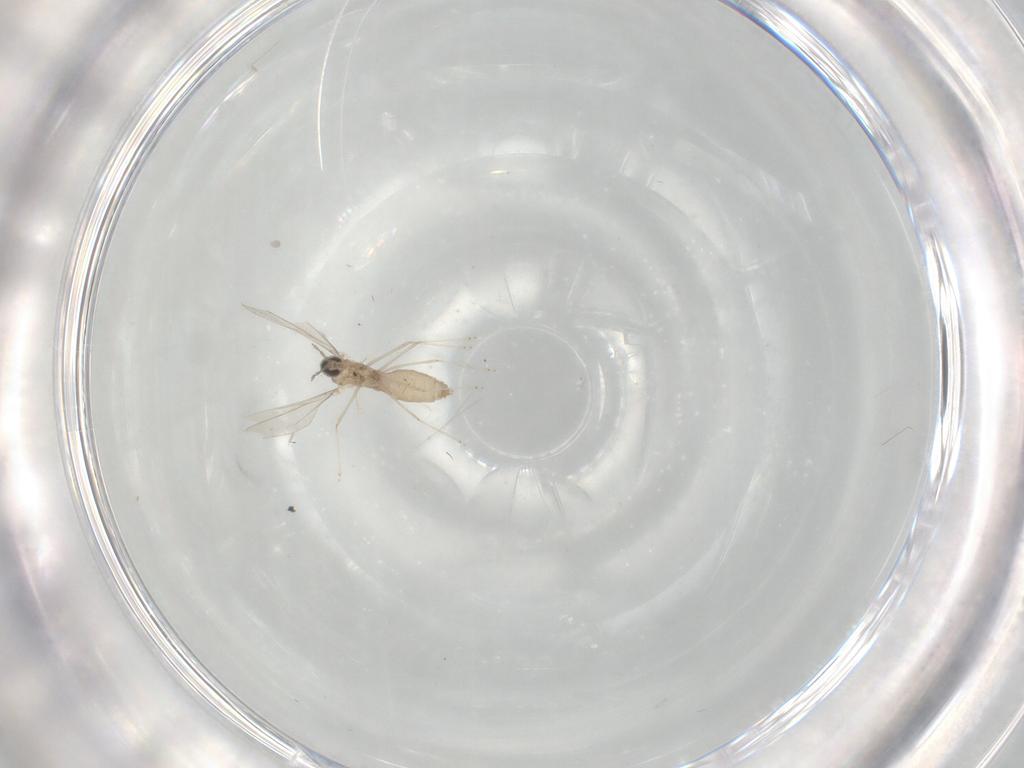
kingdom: Animalia
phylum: Arthropoda
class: Insecta
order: Diptera
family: Cecidomyiidae
